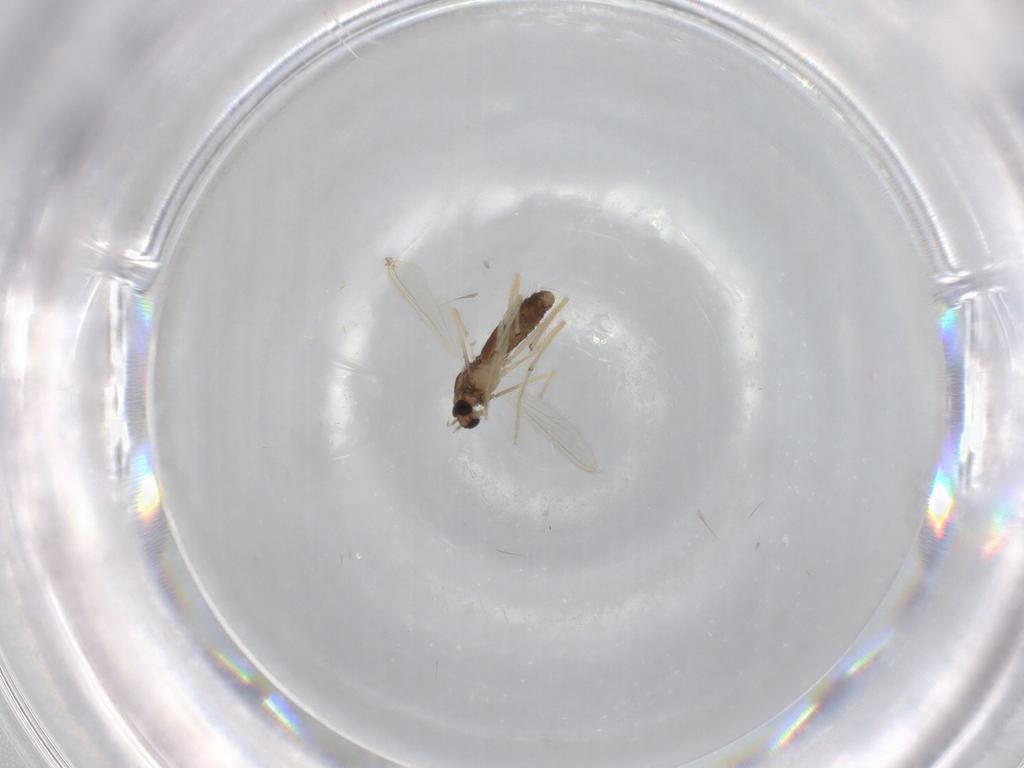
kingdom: Animalia
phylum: Arthropoda
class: Insecta
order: Diptera
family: Chironomidae
